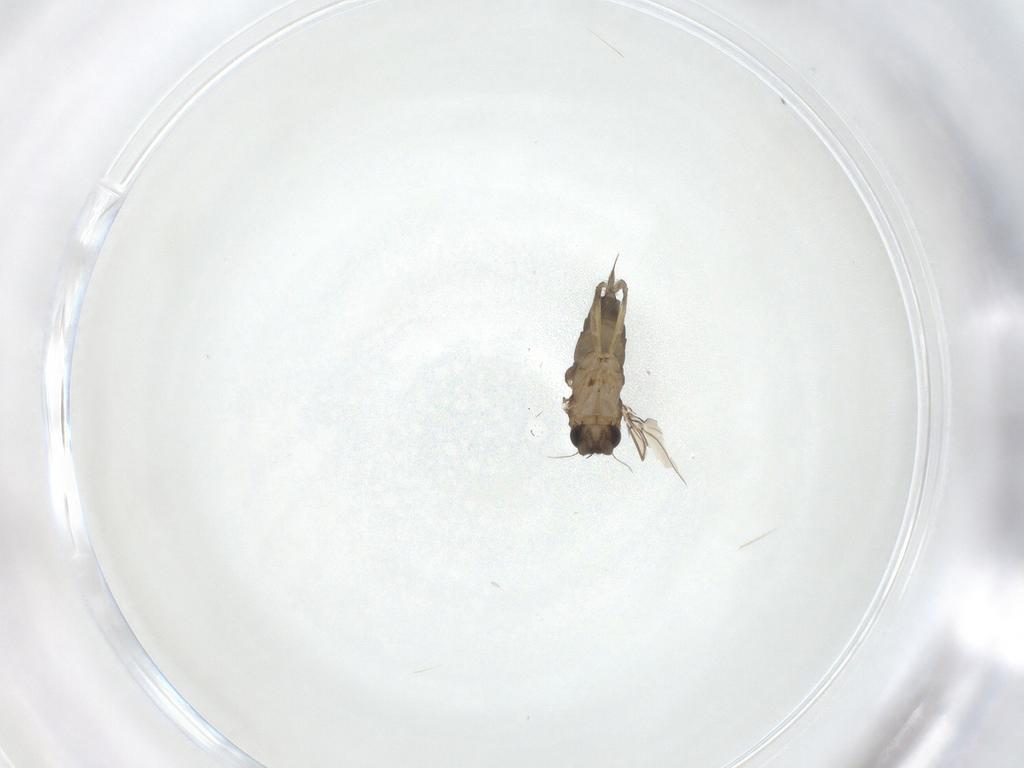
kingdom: Animalia
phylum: Arthropoda
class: Insecta
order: Diptera
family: Phoridae
